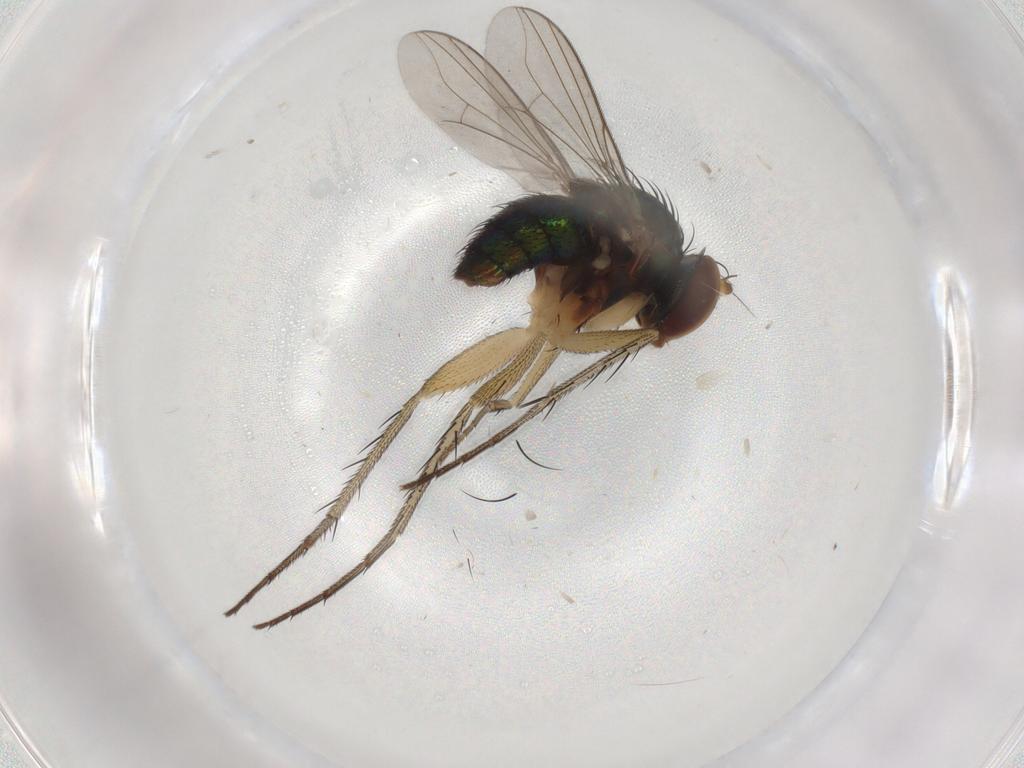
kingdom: Animalia
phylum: Arthropoda
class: Insecta
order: Diptera
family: Dolichopodidae
